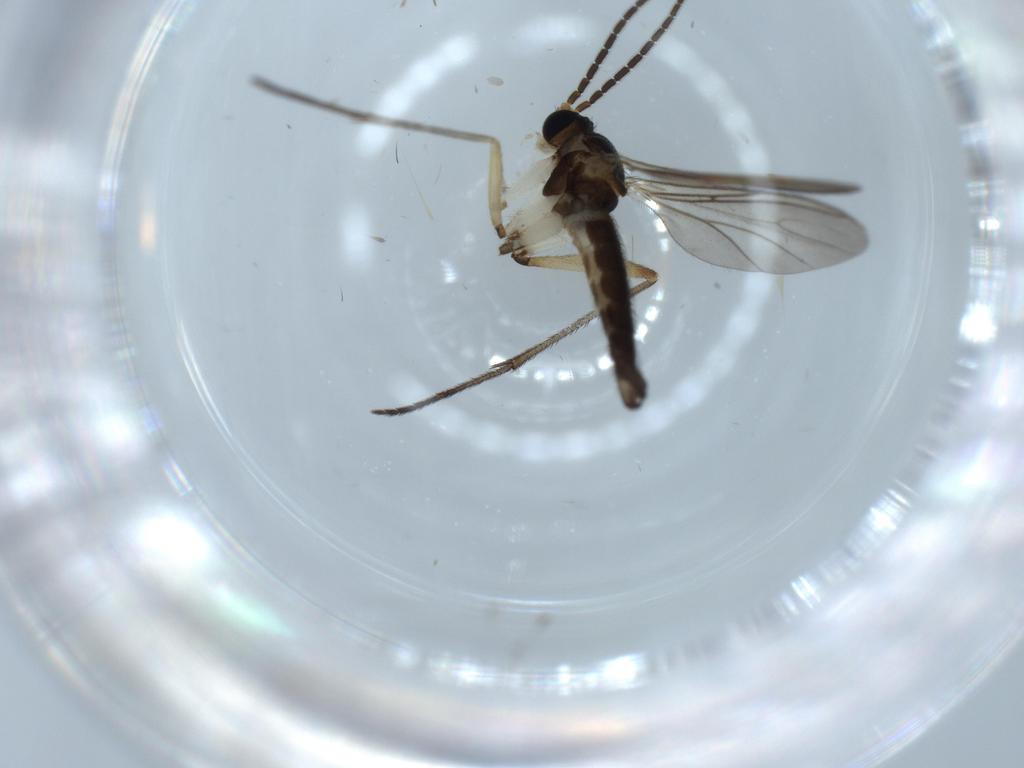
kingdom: Animalia
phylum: Arthropoda
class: Insecta
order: Diptera
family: Sciaridae
